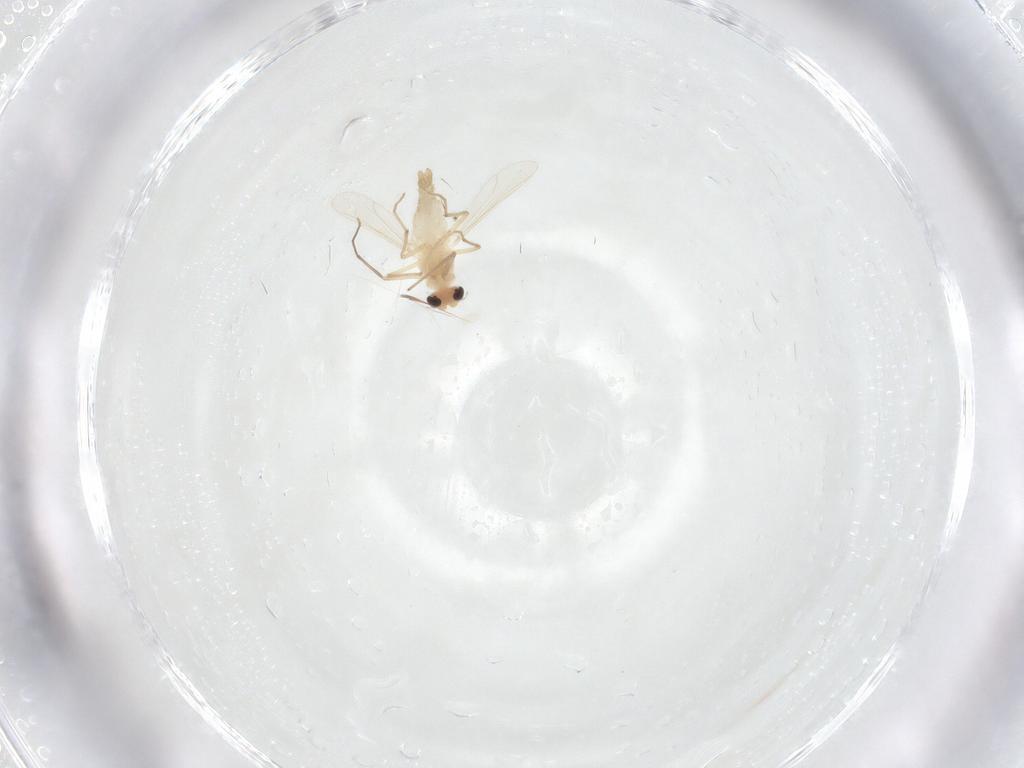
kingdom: Animalia
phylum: Arthropoda
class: Insecta
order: Diptera
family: Chironomidae
